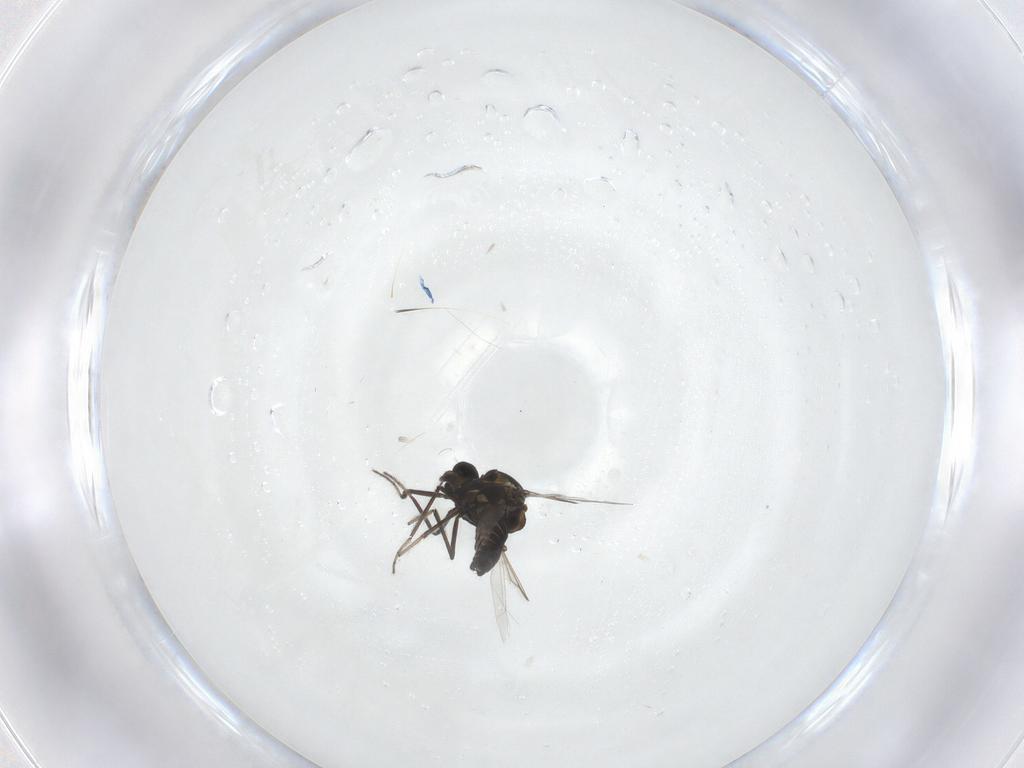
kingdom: Animalia
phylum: Arthropoda
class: Insecta
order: Diptera
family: Ceratopogonidae
